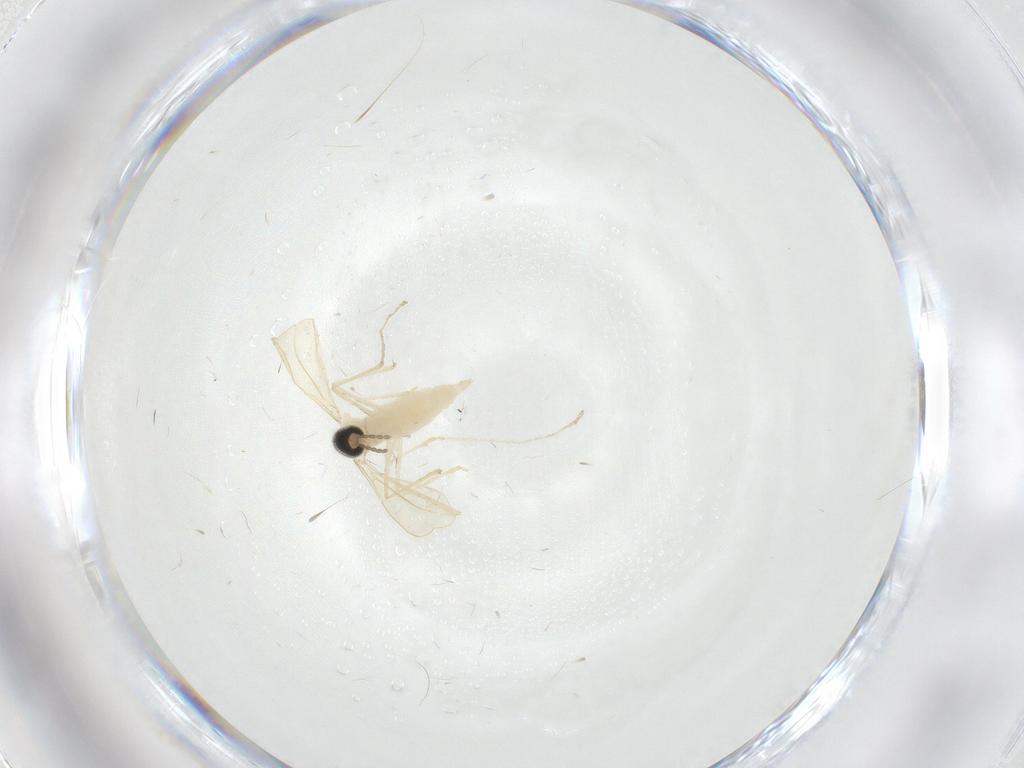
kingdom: Animalia
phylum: Arthropoda
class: Insecta
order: Diptera
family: Cecidomyiidae
